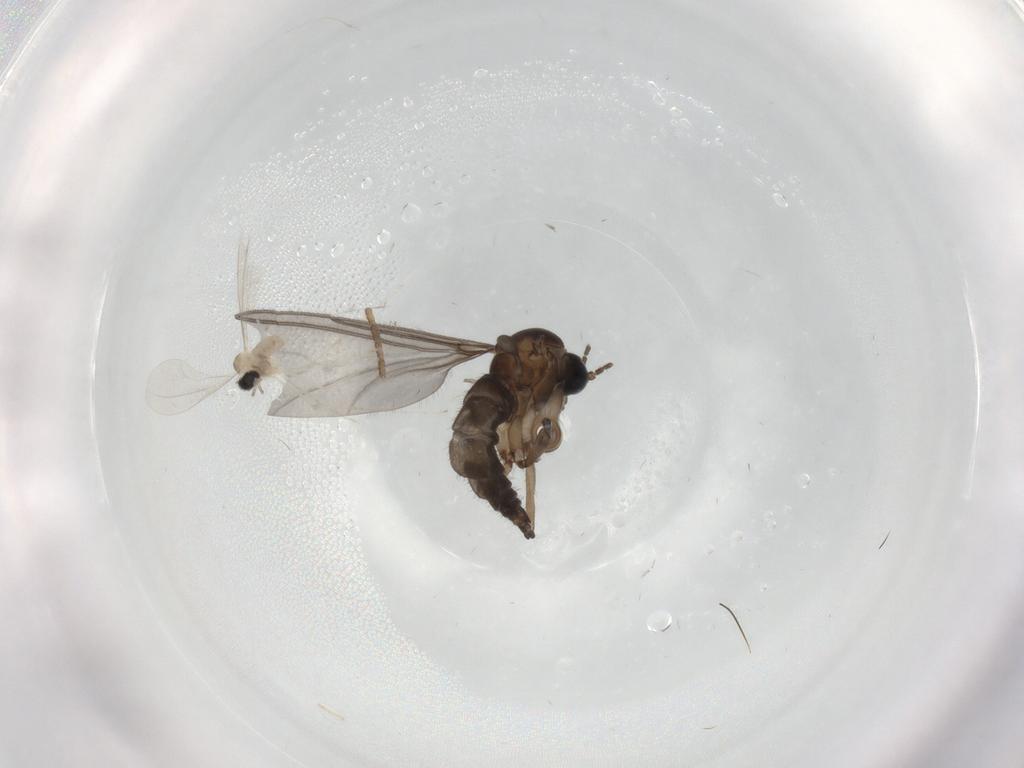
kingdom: Animalia
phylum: Arthropoda
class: Insecta
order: Diptera
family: Sciaridae
